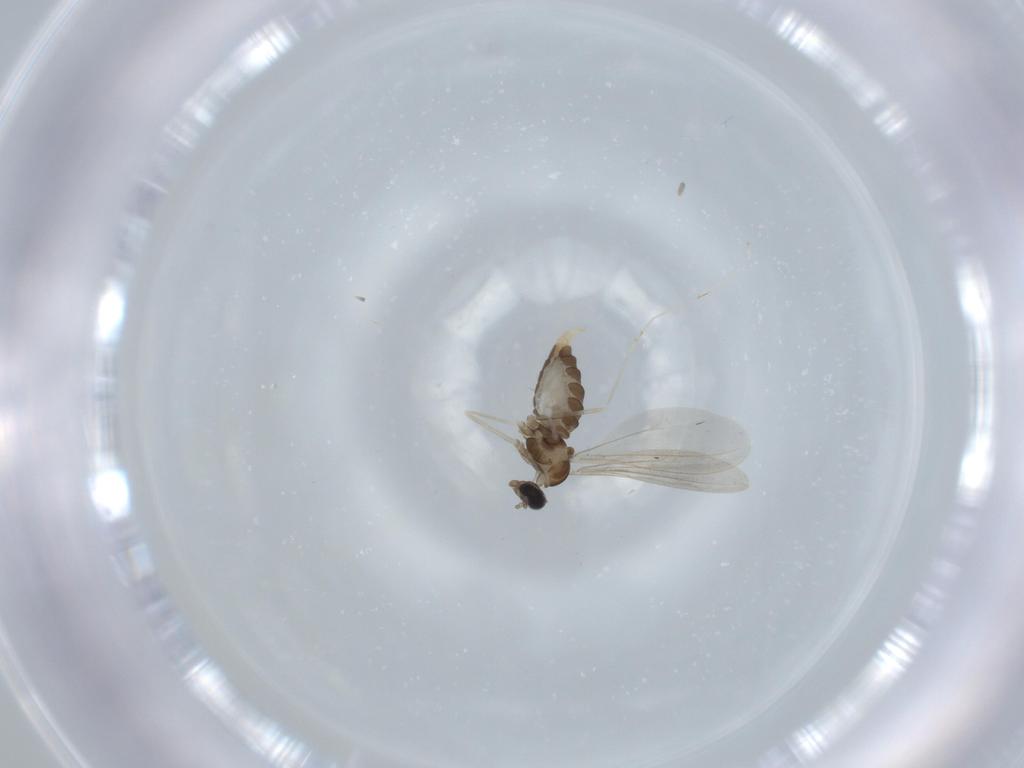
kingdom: Animalia
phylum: Arthropoda
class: Insecta
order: Diptera
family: Cecidomyiidae
